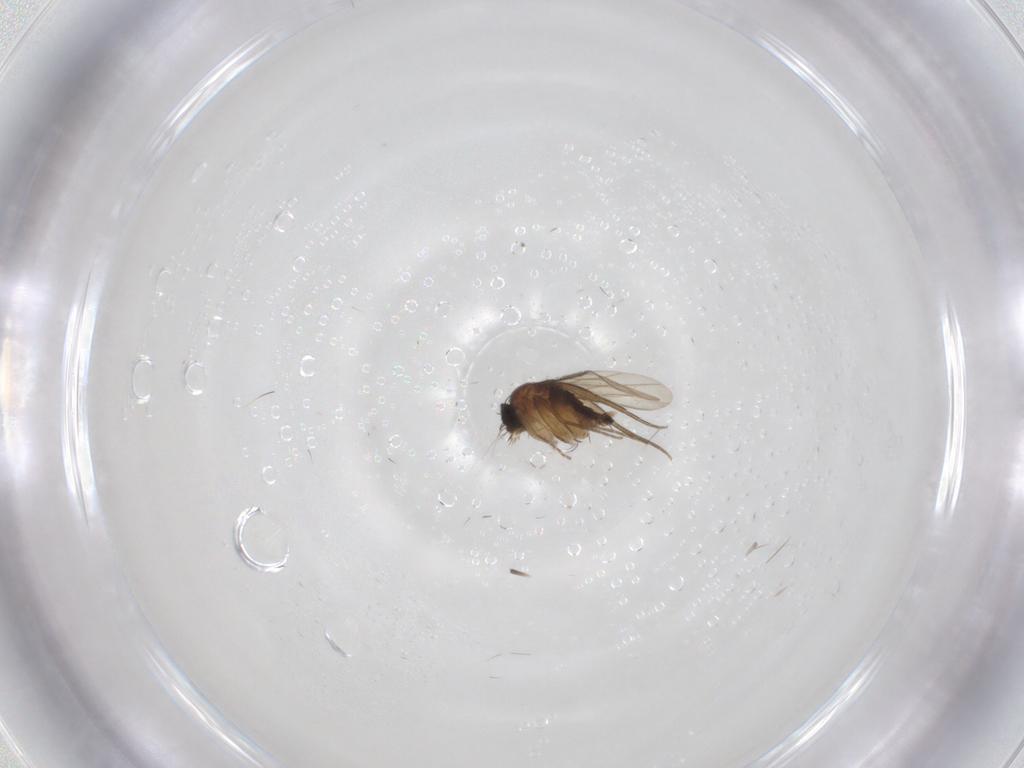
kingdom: Animalia
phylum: Arthropoda
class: Insecta
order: Diptera
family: Phoridae
